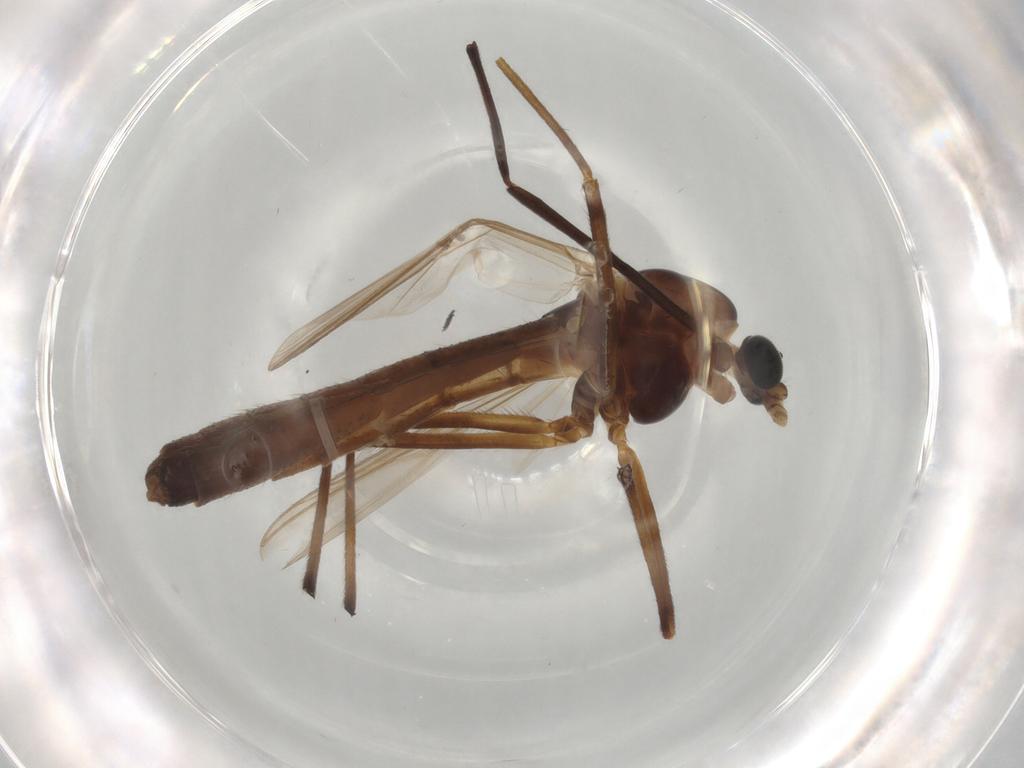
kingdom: Animalia
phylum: Arthropoda
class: Insecta
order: Diptera
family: Chironomidae
